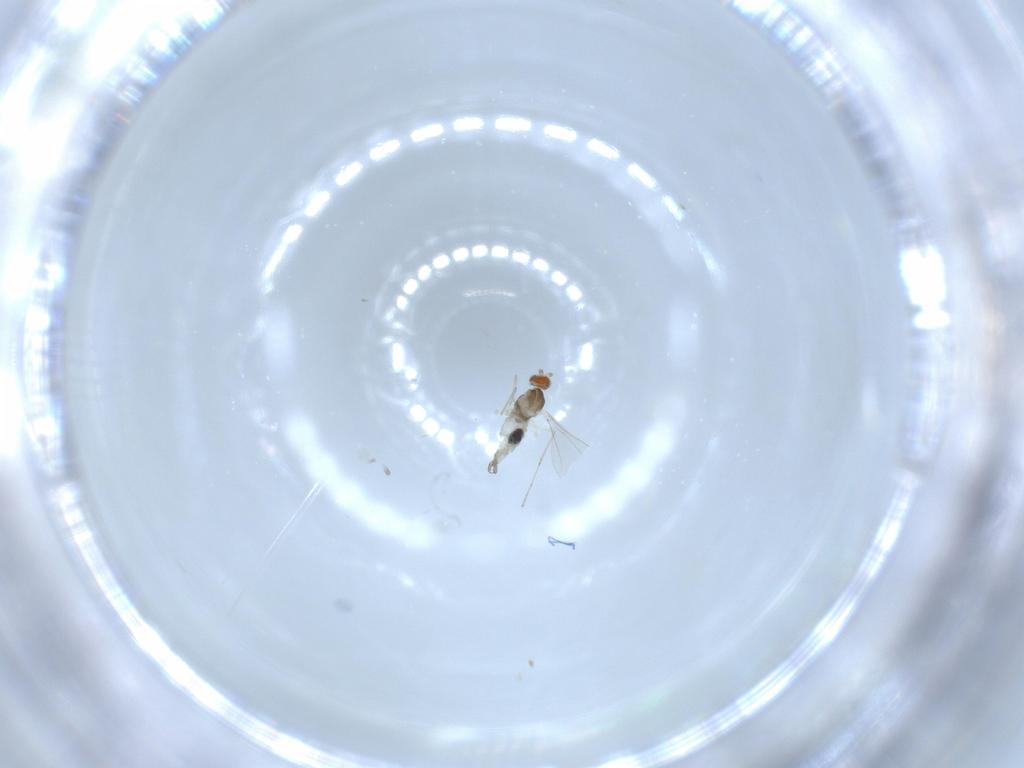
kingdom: Animalia
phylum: Arthropoda
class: Insecta
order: Diptera
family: Cecidomyiidae
